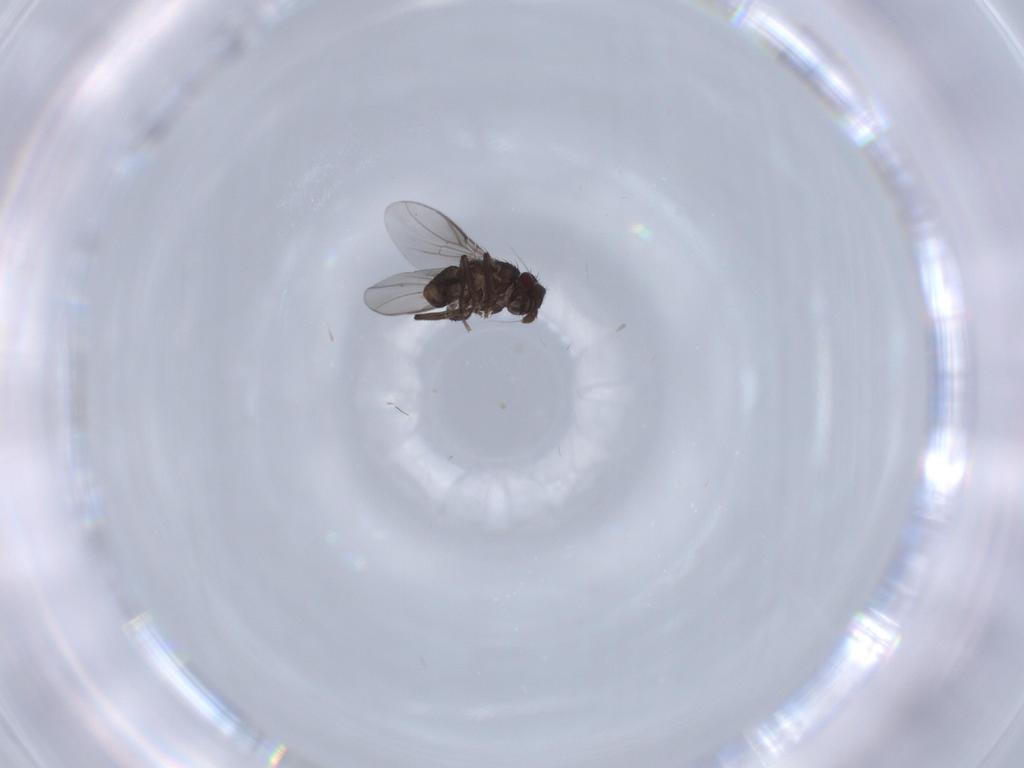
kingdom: Animalia
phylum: Arthropoda
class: Insecta
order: Diptera
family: Sphaeroceridae
